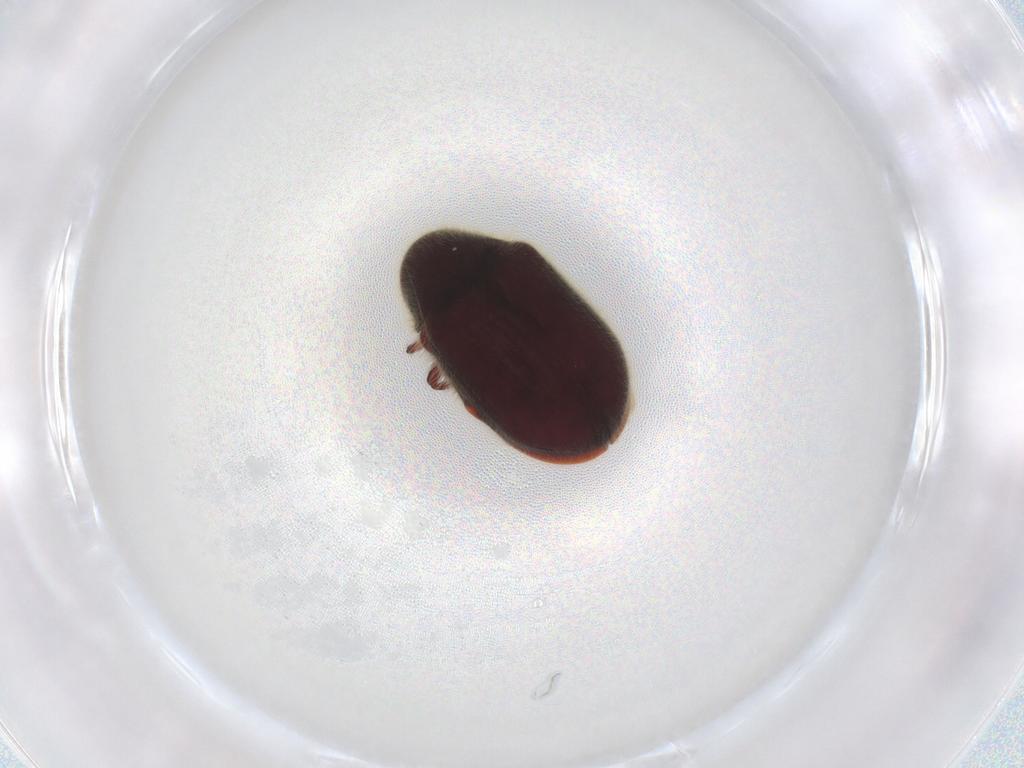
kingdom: Animalia
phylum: Arthropoda
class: Insecta
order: Coleoptera
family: Ptinidae
